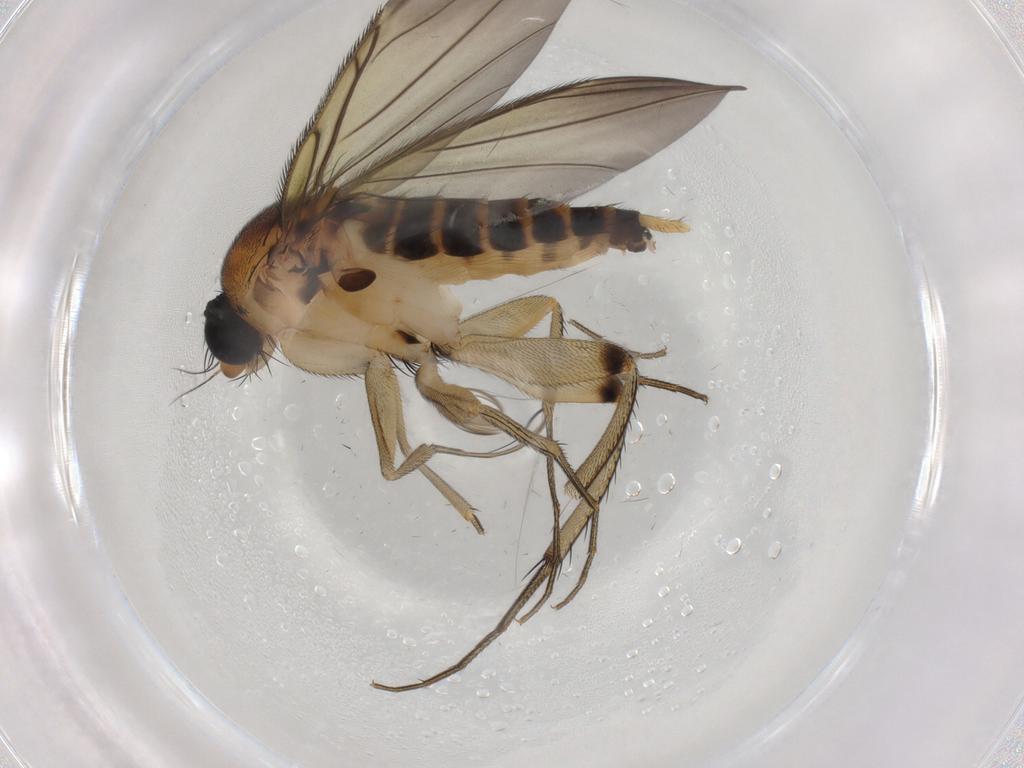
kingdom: Animalia
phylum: Arthropoda
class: Insecta
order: Diptera
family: Phoridae
